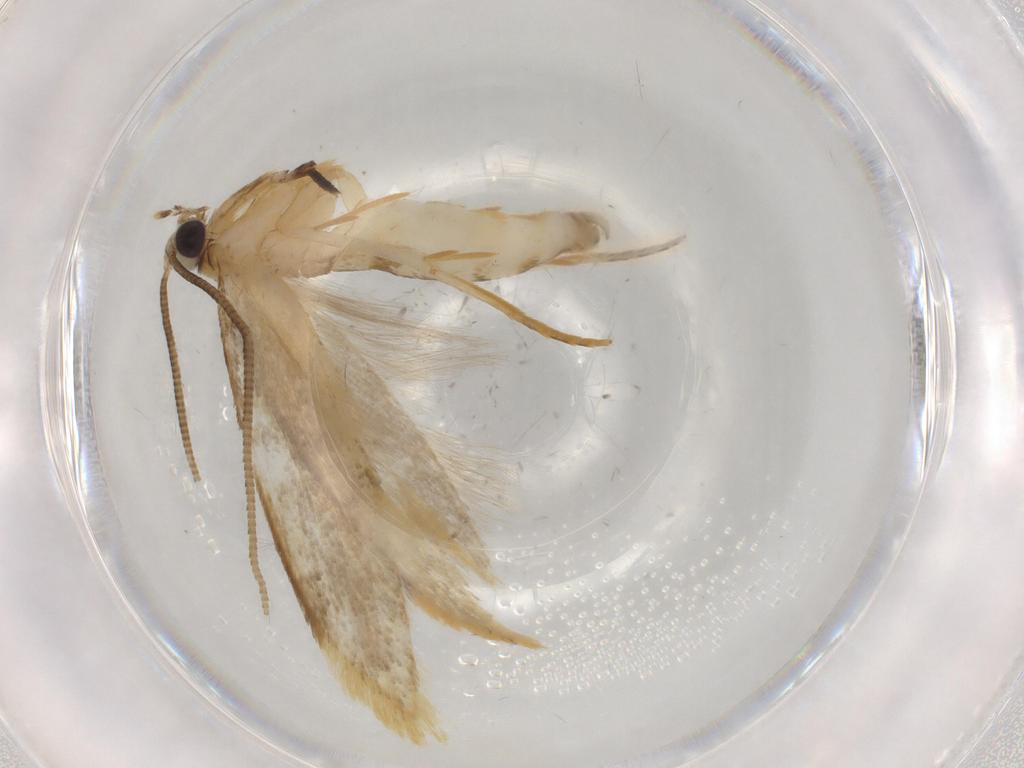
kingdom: Animalia
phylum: Arthropoda
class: Insecta
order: Lepidoptera
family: Tineidae
